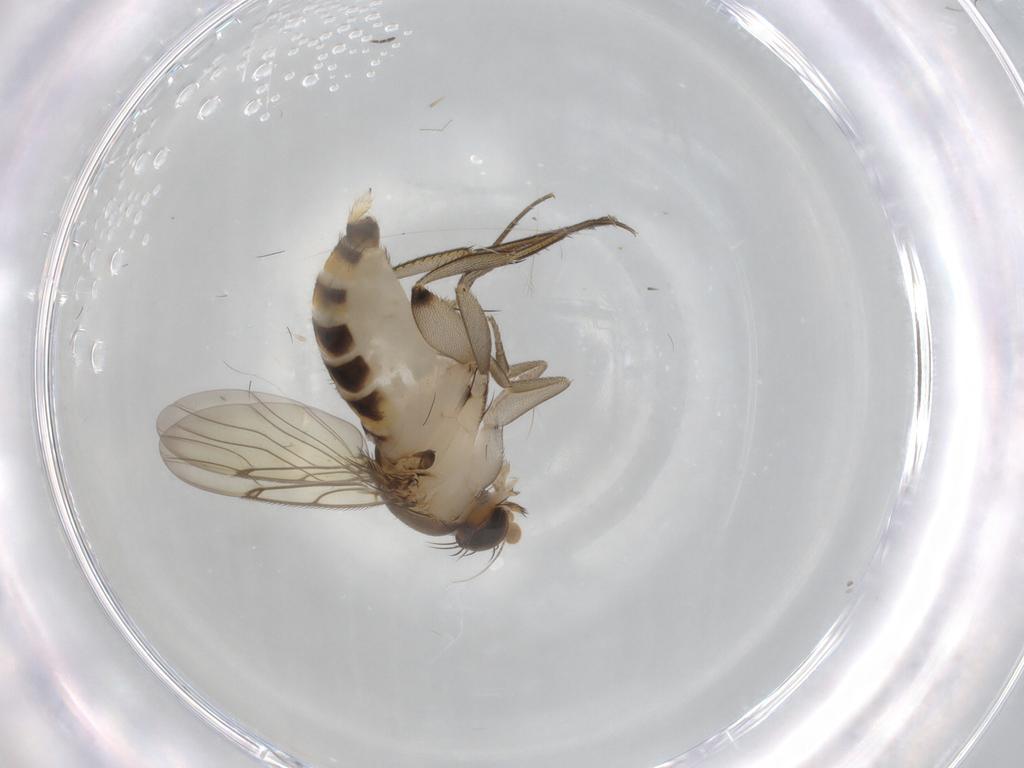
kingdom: Animalia
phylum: Arthropoda
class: Insecta
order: Diptera
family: Phoridae
